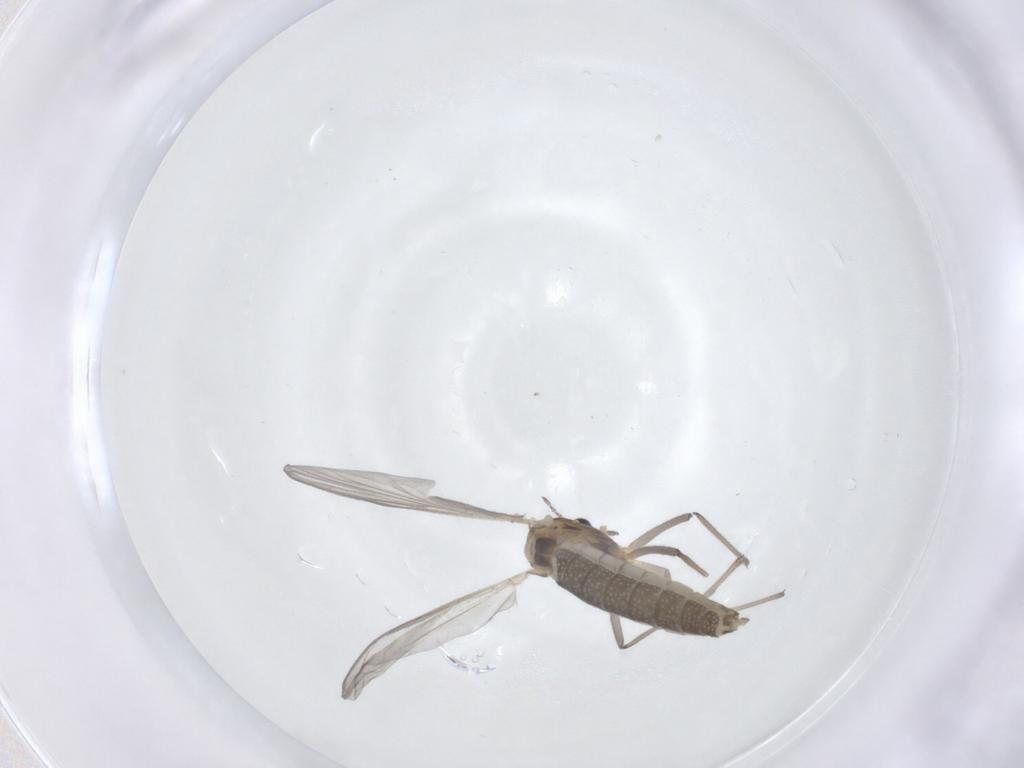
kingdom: Animalia
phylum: Arthropoda
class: Insecta
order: Diptera
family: Chironomidae
